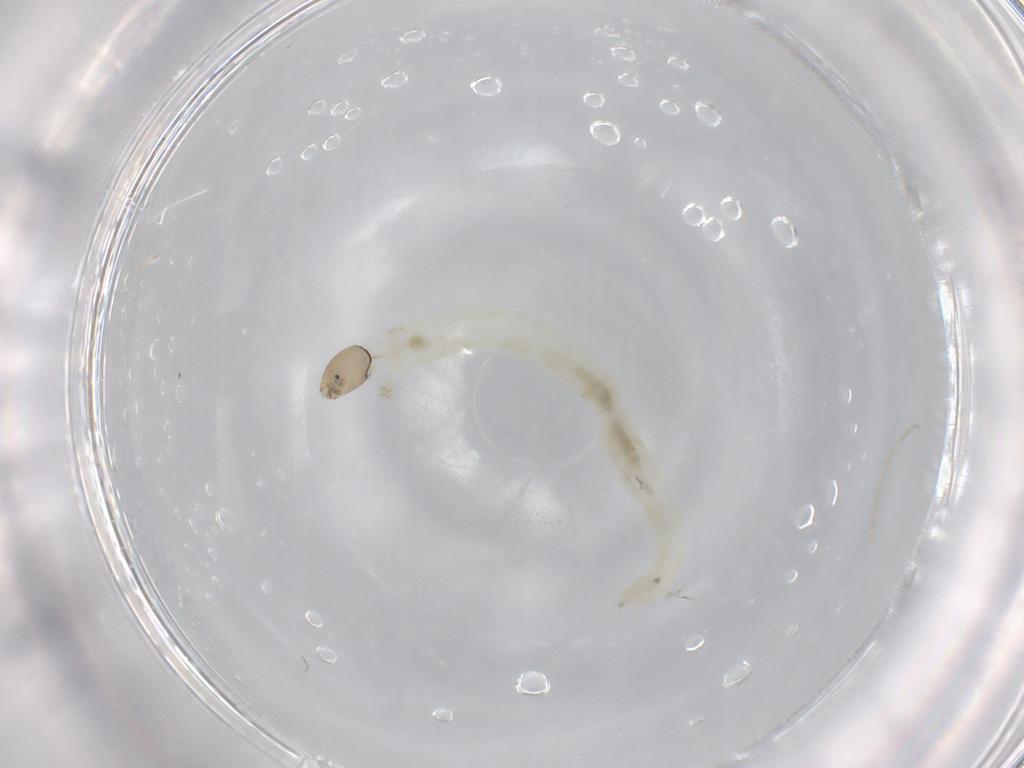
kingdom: Animalia
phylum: Arthropoda
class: Insecta
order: Diptera
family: Chironomidae
